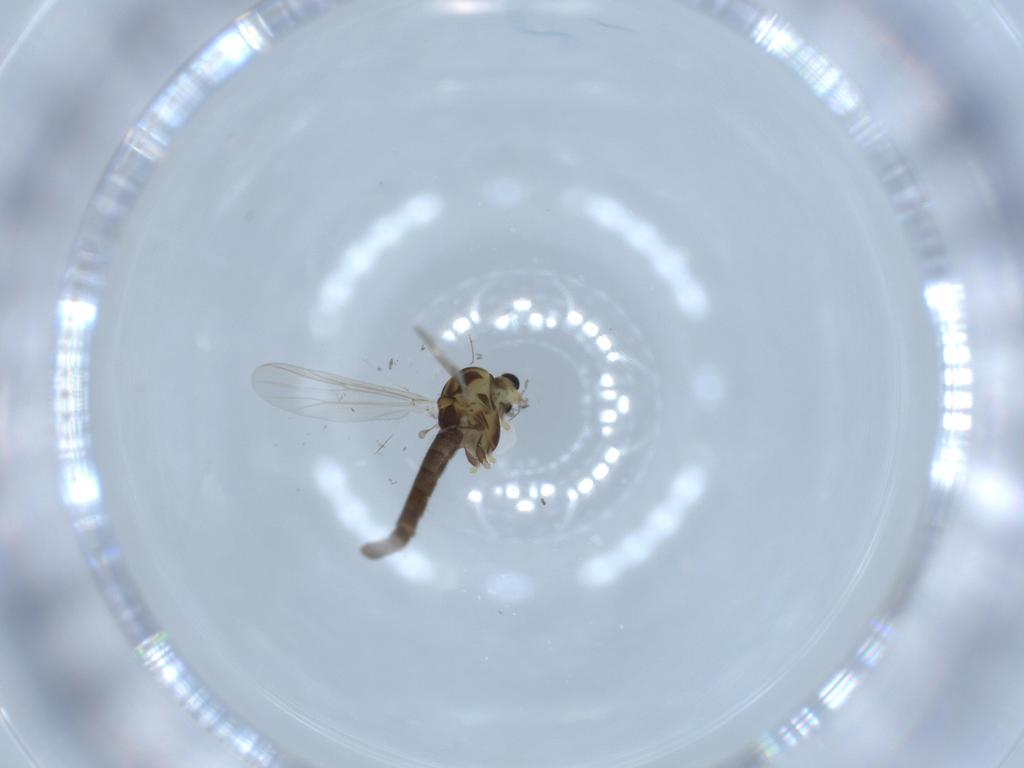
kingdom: Animalia
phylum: Arthropoda
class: Insecta
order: Diptera
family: Chironomidae
